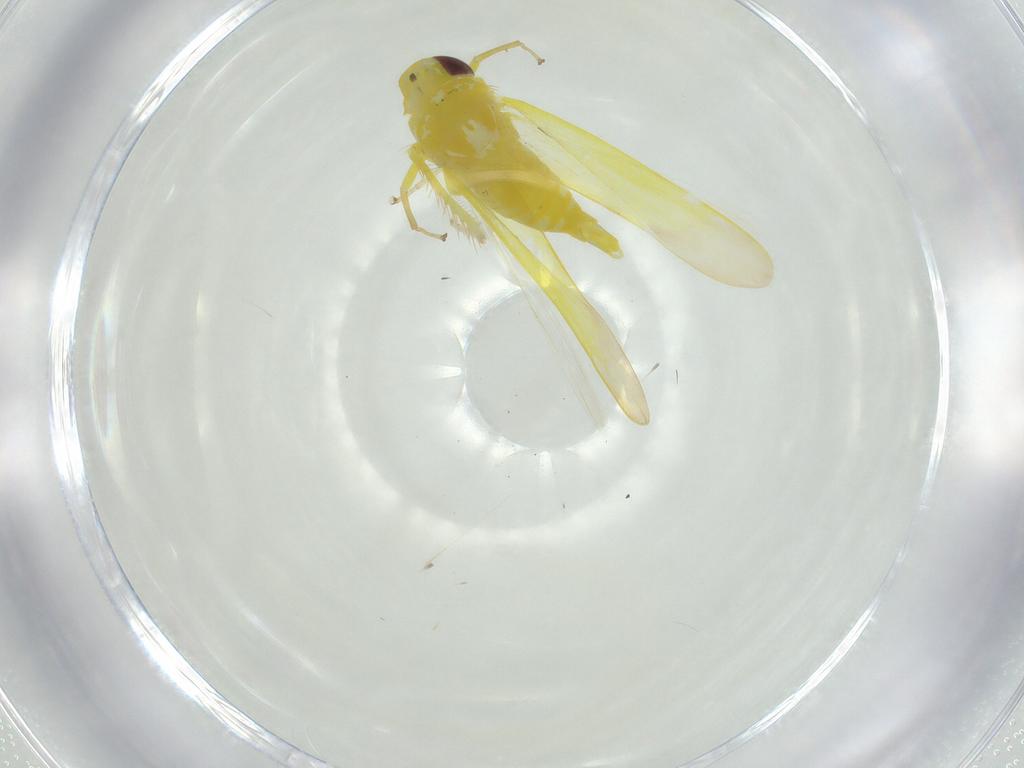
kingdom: Animalia
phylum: Arthropoda
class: Insecta
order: Hemiptera
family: Cicadellidae
